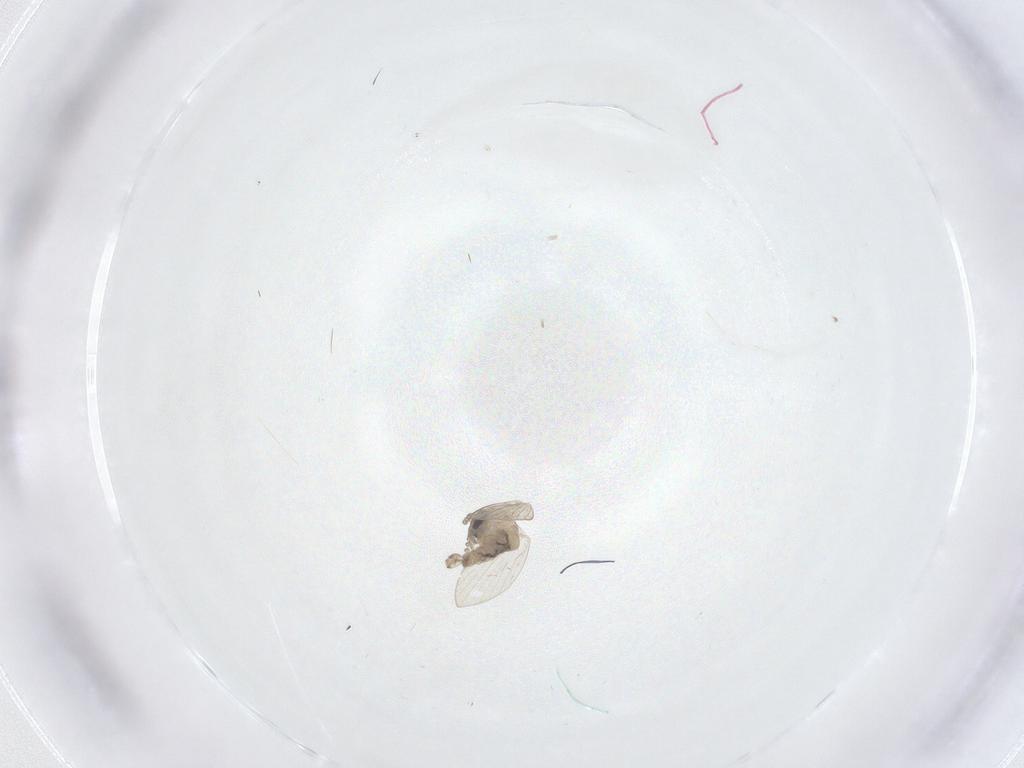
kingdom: Animalia
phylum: Arthropoda
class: Insecta
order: Diptera
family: Psychodidae
